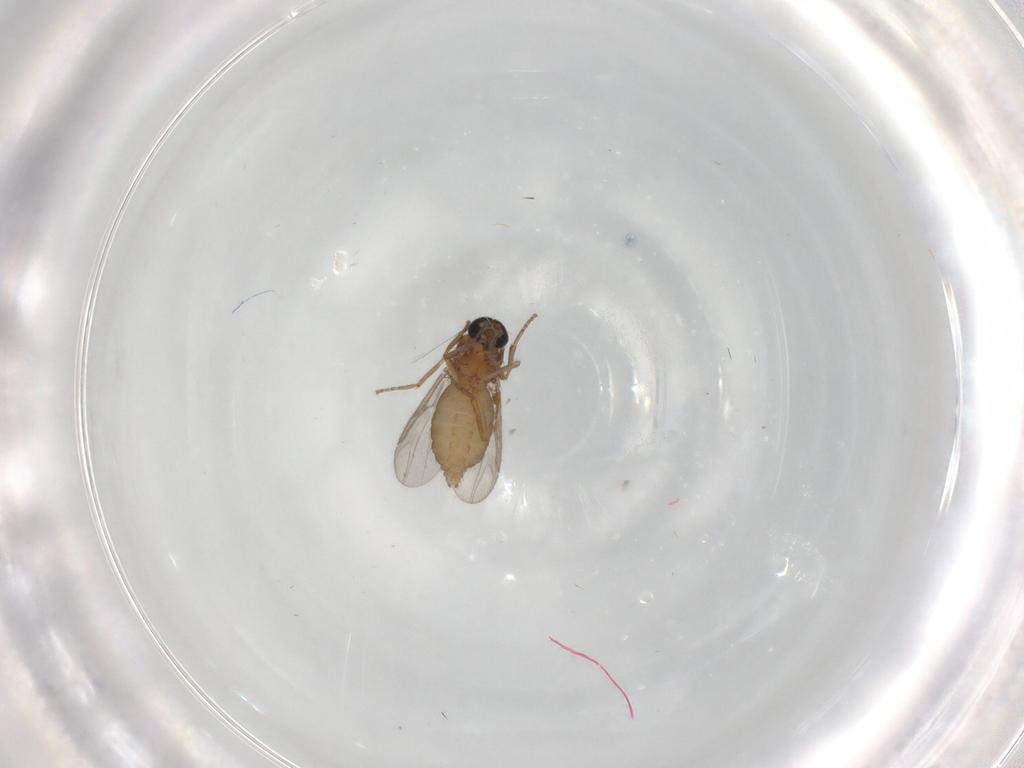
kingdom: Animalia
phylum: Arthropoda
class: Insecta
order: Diptera
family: Ceratopogonidae
